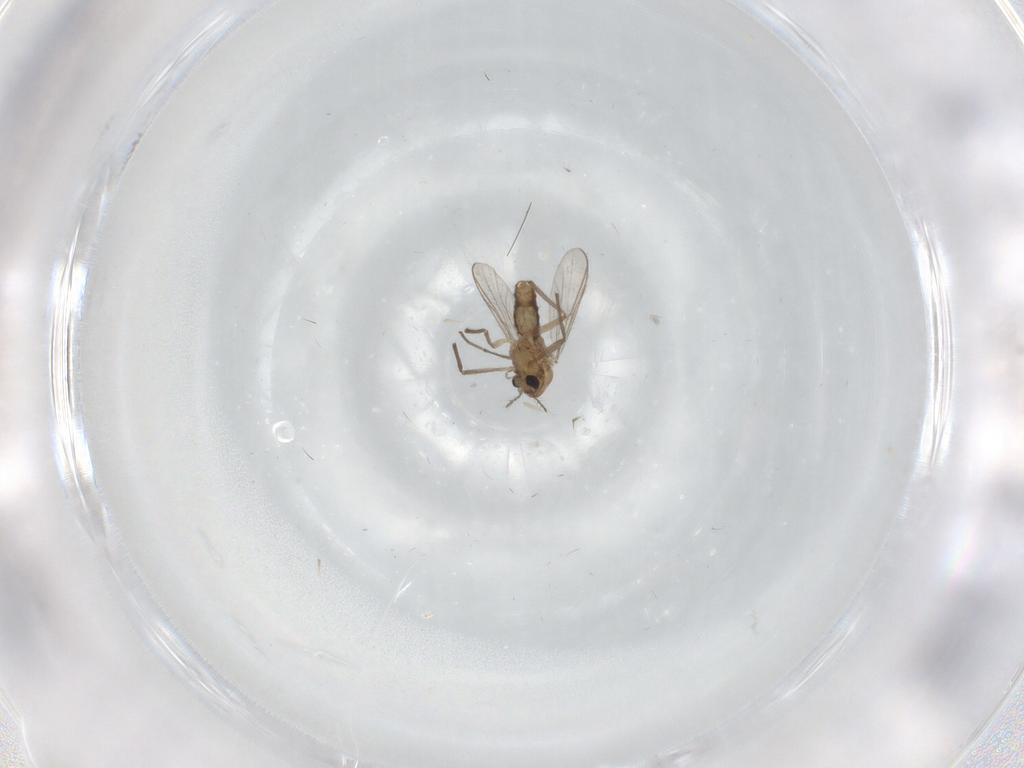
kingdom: Animalia
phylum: Arthropoda
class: Insecta
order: Diptera
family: Chironomidae
